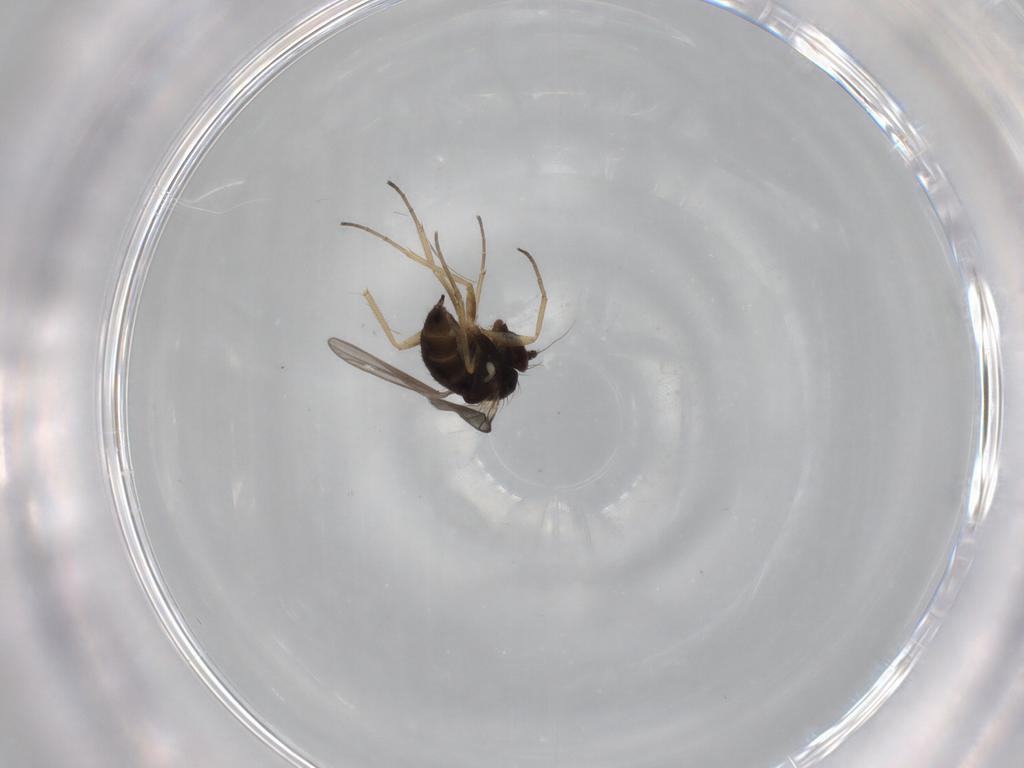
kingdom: Animalia
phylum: Arthropoda
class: Insecta
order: Diptera
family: Dolichopodidae
